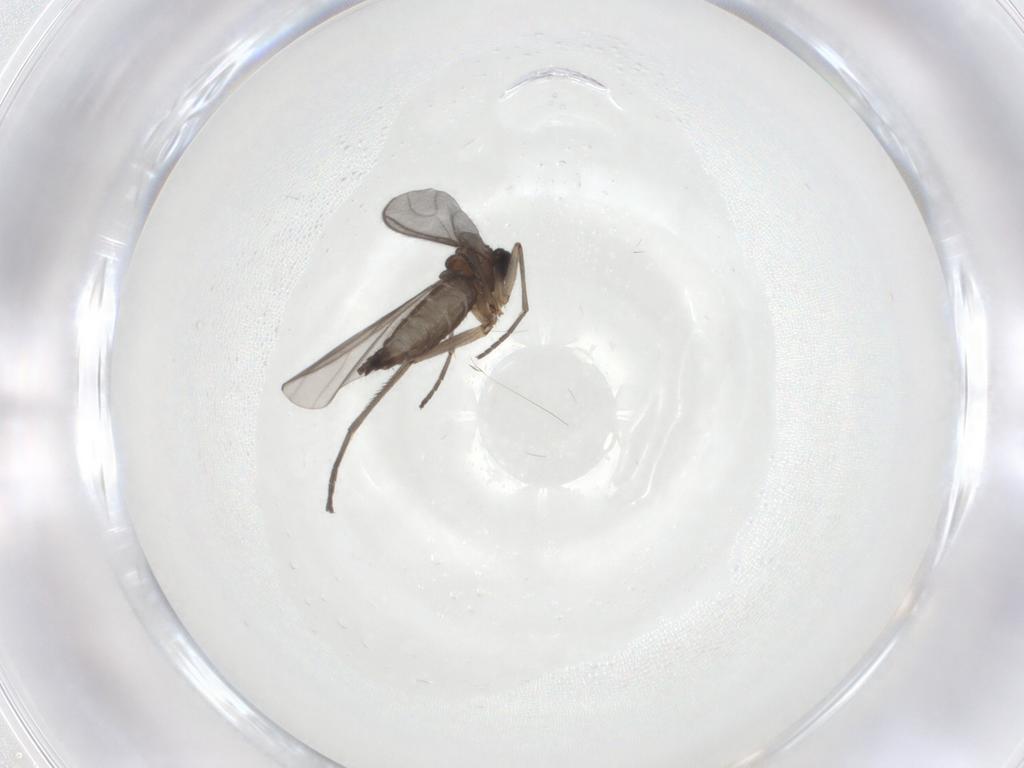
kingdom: Animalia
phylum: Arthropoda
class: Insecta
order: Diptera
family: Sciaridae
